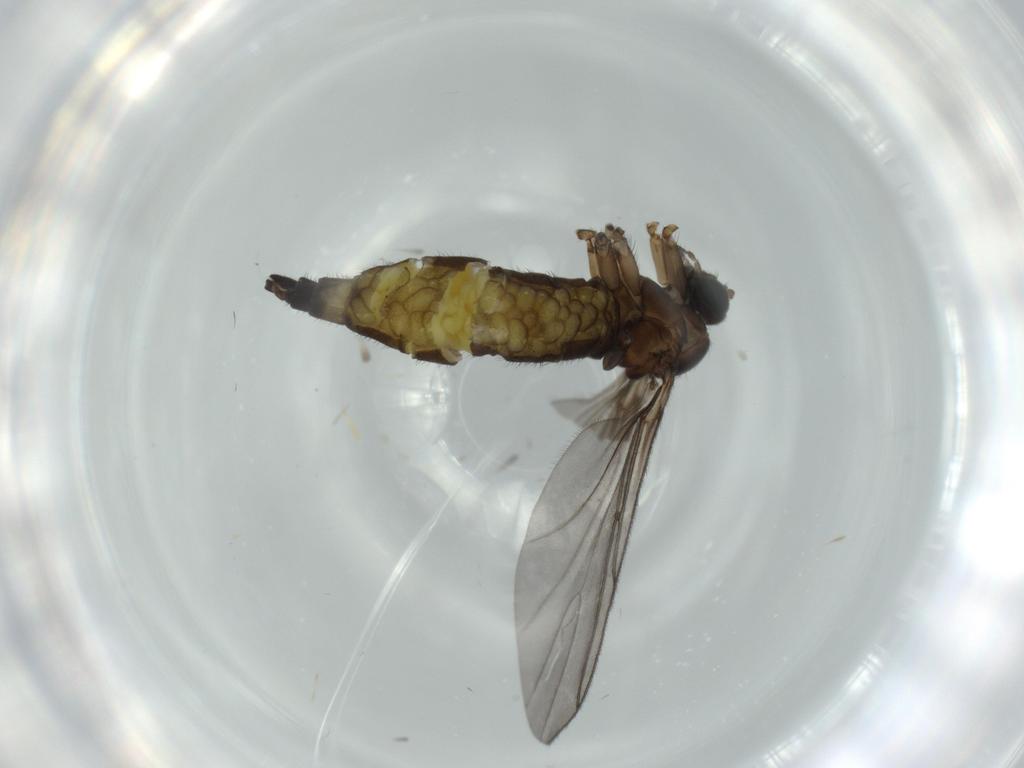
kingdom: Animalia
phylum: Arthropoda
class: Insecta
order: Diptera
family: Sciaridae
